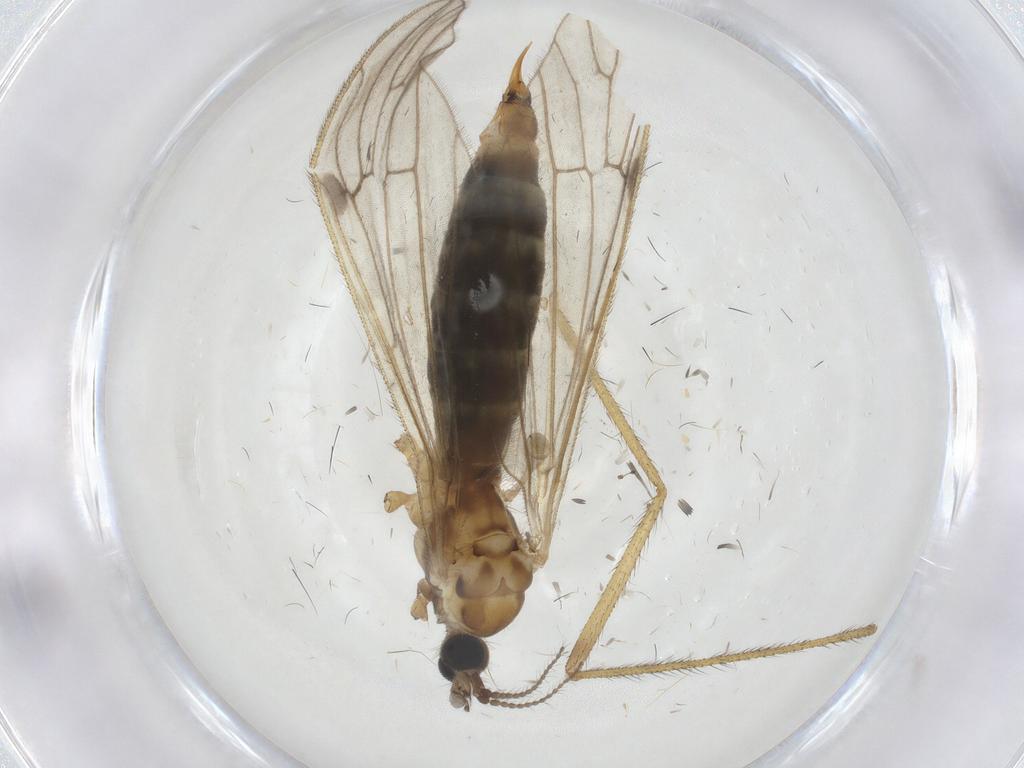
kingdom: Animalia
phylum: Arthropoda
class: Insecta
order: Diptera
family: Limoniidae
